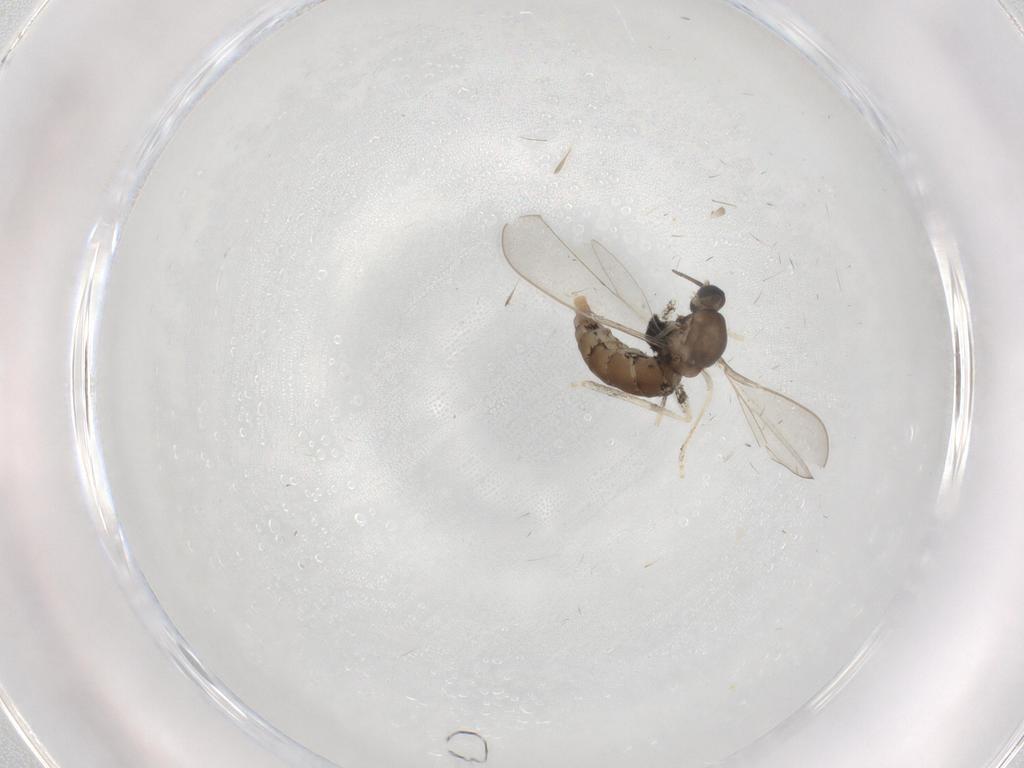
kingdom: Animalia
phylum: Arthropoda
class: Insecta
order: Diptera
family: Cecidomyiidae
